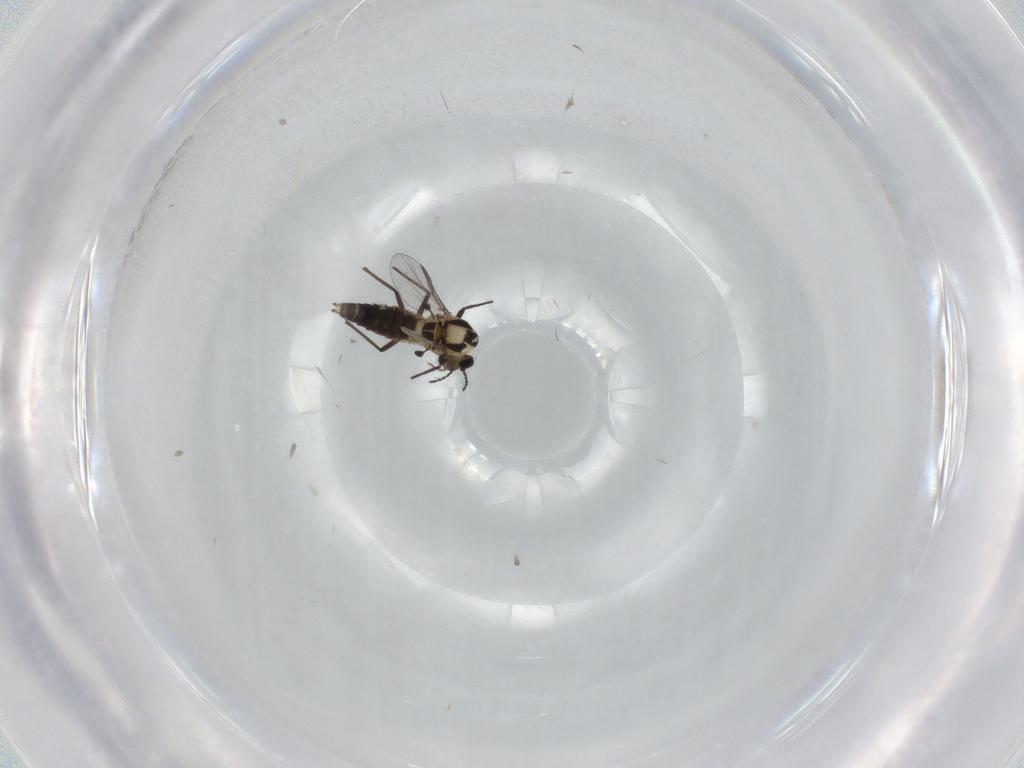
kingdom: Animalia
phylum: Arthropoda
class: Insecta
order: Diptera
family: Chironomidae
